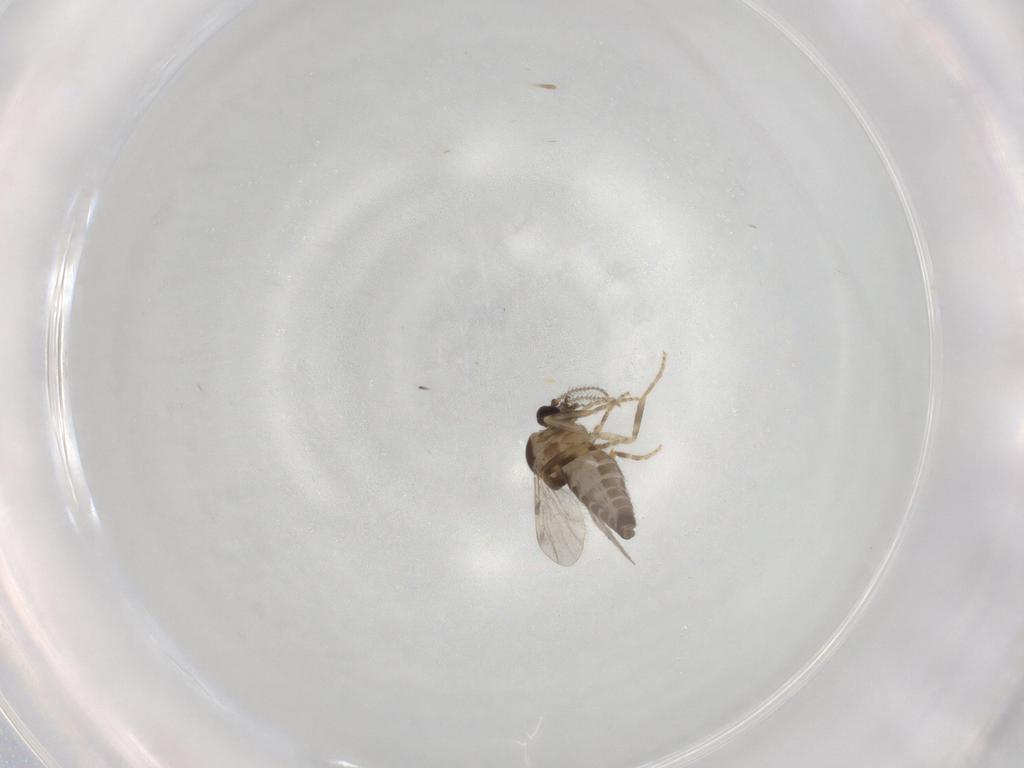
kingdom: Animalia
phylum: Arthropoda
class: Insecta
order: Diptera
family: Ceratopogonidae
